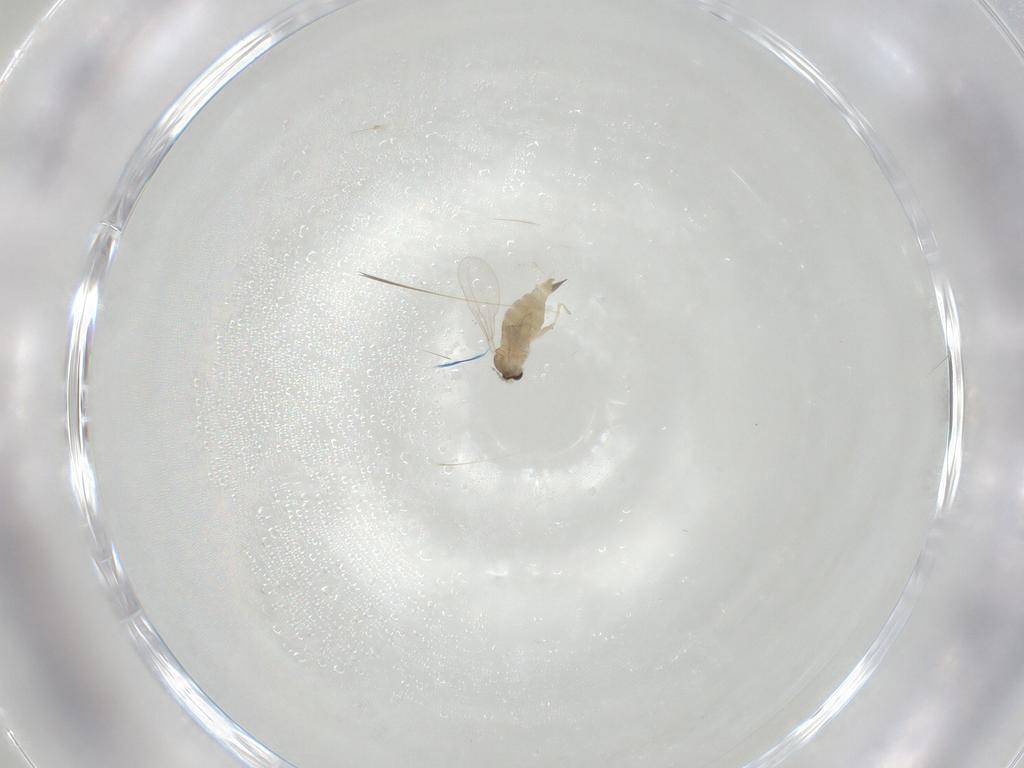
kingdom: Animalia
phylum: Arthropoda
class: Insecta
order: Diptera
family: Cecidomyiidae
